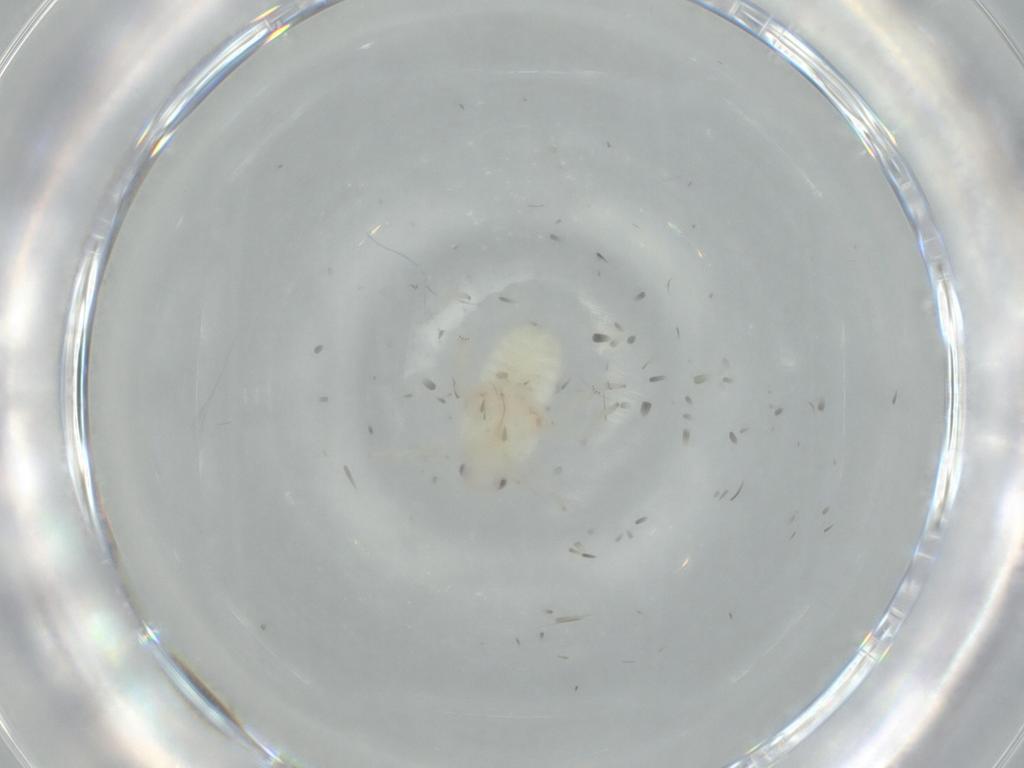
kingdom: Animalia
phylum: Arthropoda
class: Insecta
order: Hemiptera
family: Flatidae
